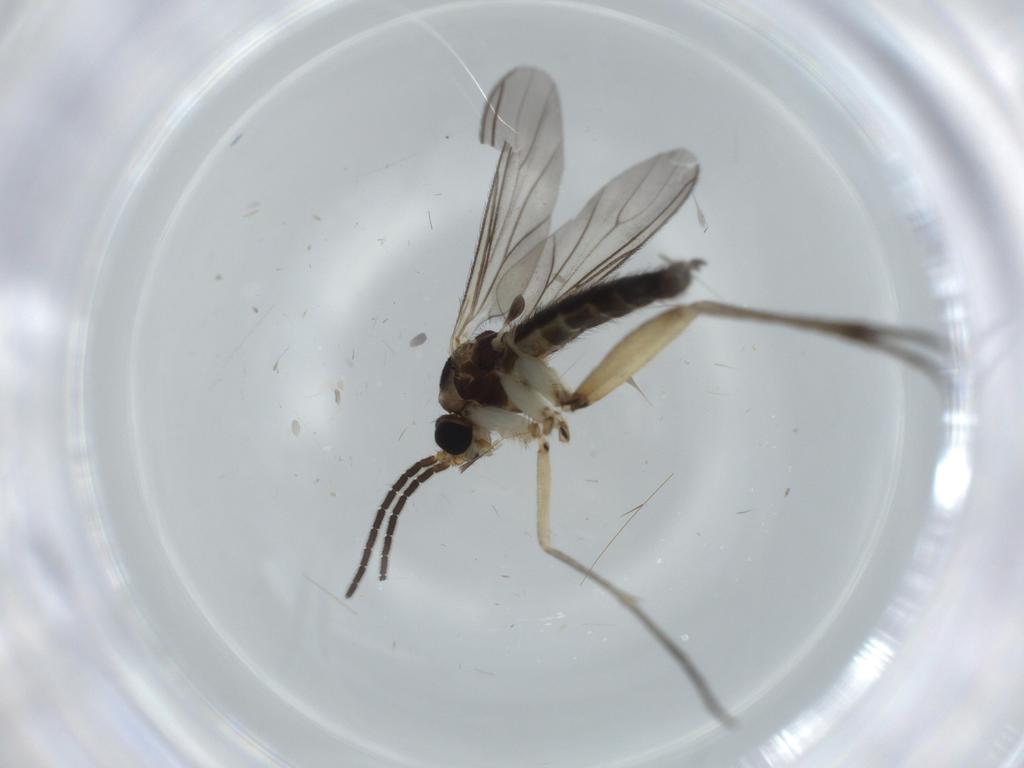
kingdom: Animalia
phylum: Arthropoda
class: Insecta
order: Diptera
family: Sciaridae
